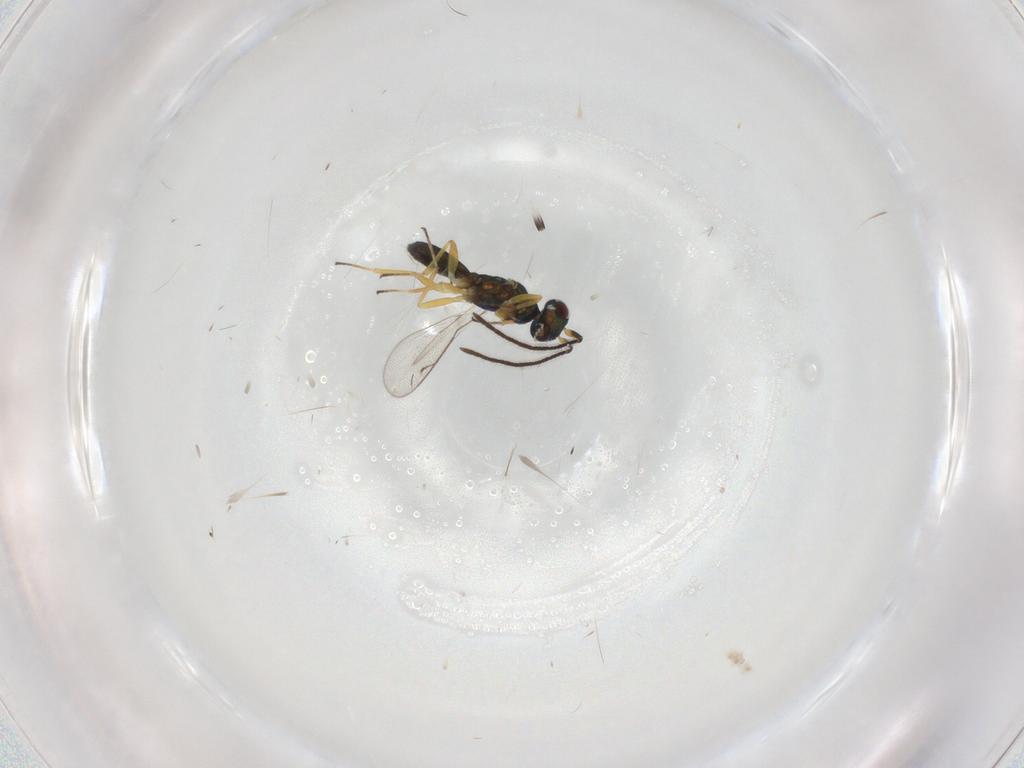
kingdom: Animalia
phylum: Arthropoda
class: Insecta
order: Hymenoptera
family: Eupelmidae
